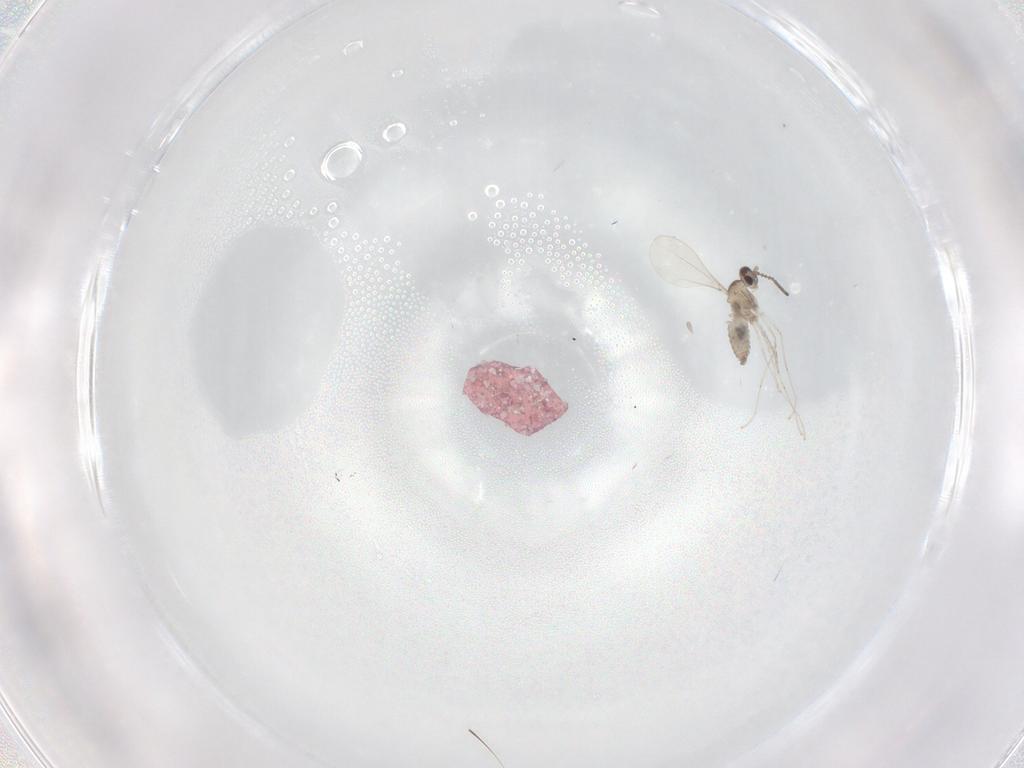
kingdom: Animalia
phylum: Arthropoda
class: Insecta
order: Diptera
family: Cecidomyiidae
